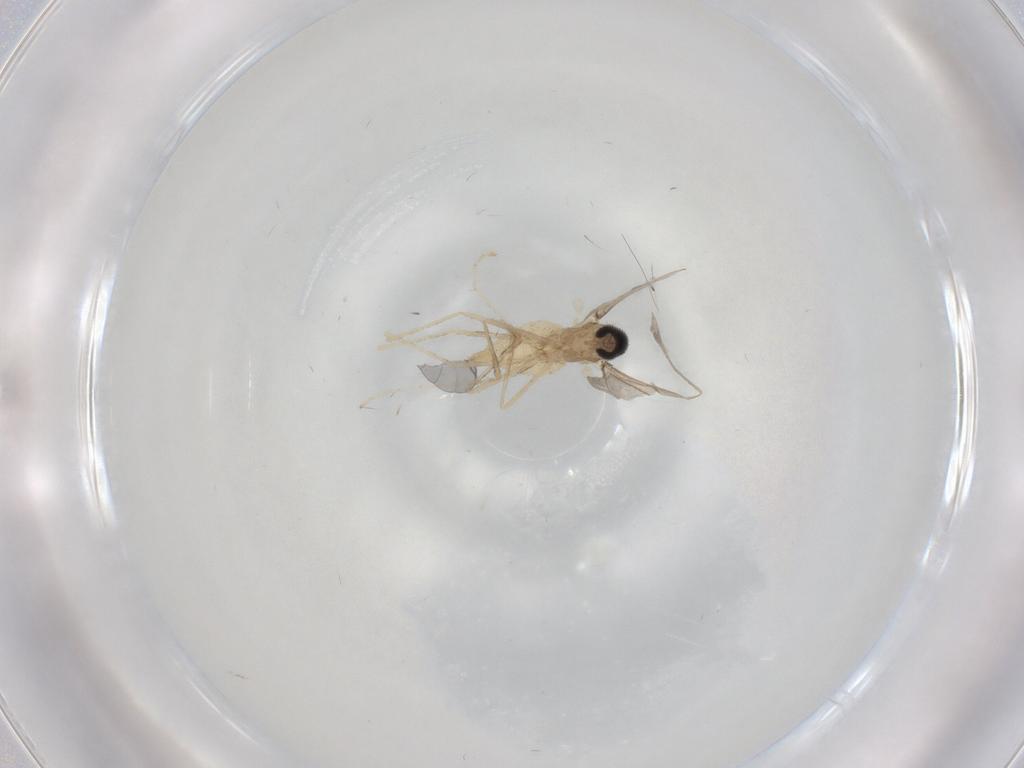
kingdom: Animalia
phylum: Arthropoda
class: Insecta
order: Diptera
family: Cecidomyiidae
